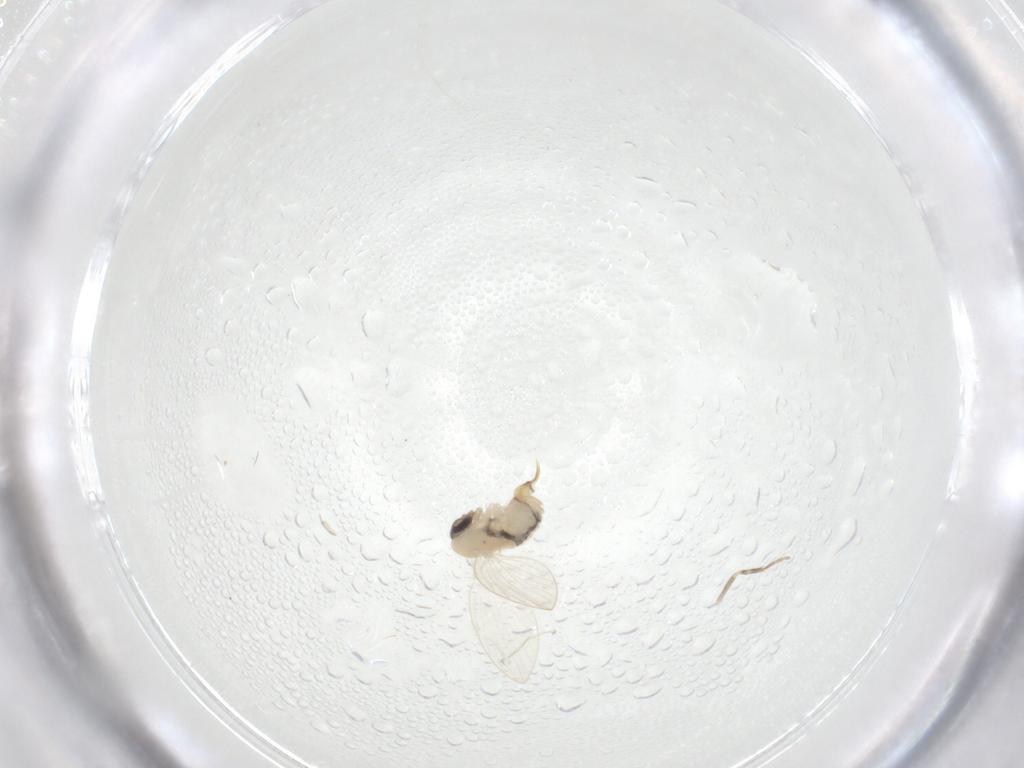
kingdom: Animalia
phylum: Arthropoda
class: Insecta
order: Diptera
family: Psychodidae
